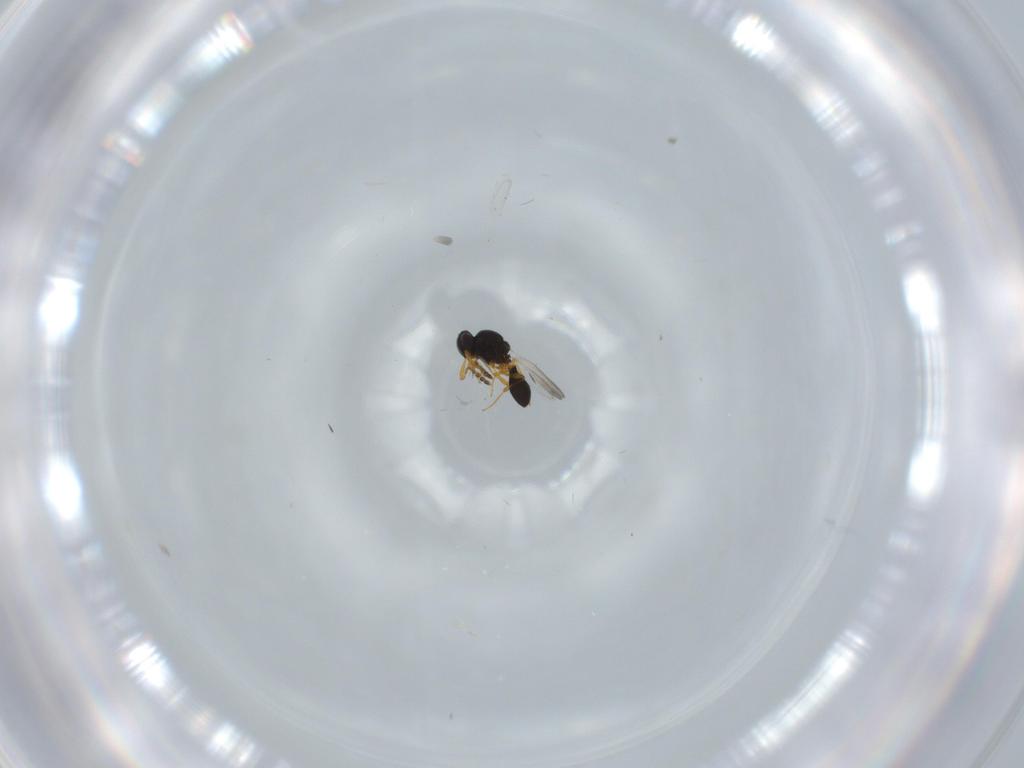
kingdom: Animalia
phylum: Arthropoda
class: Insecta
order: Hymenoptera
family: Platygastridae
